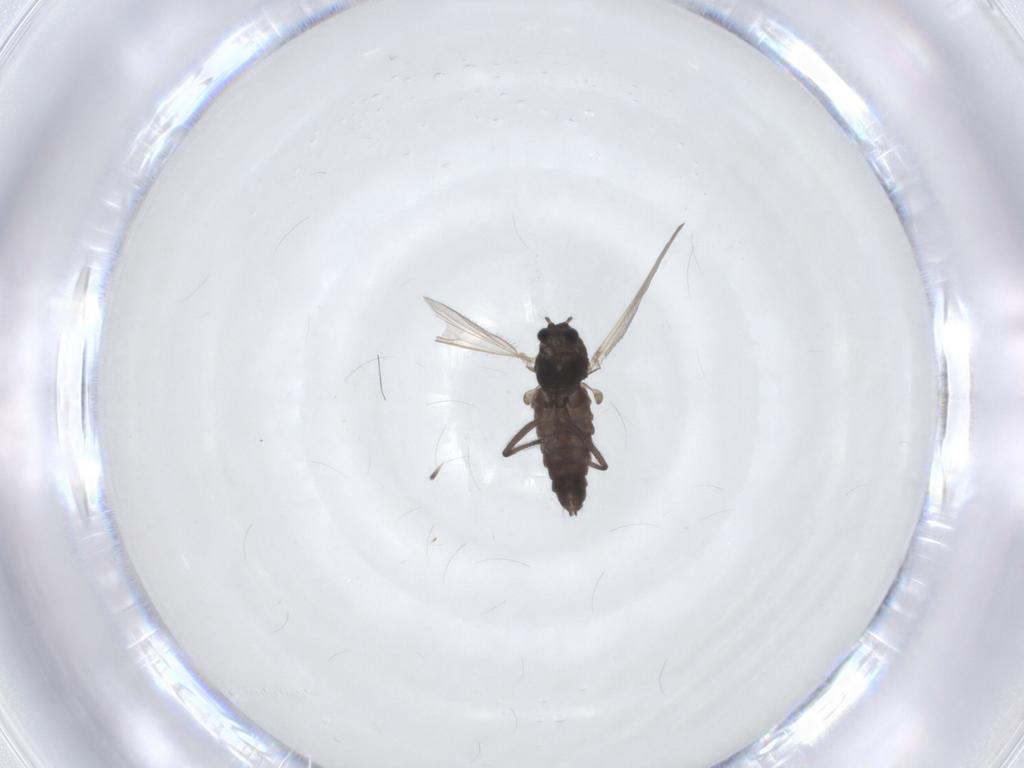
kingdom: Animalia
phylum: Arthropoda
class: Insecta
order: Diptera
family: Chironomidae
